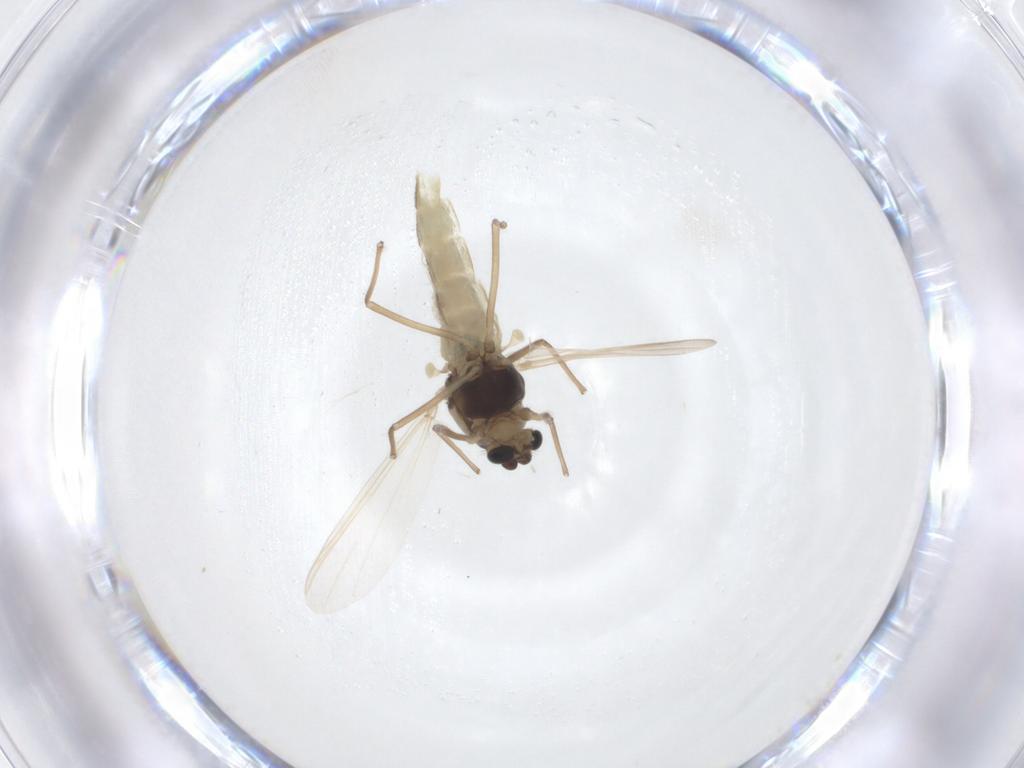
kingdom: Animalia
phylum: Arthropoda
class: Insecta
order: Diptera
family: Chironomidae
